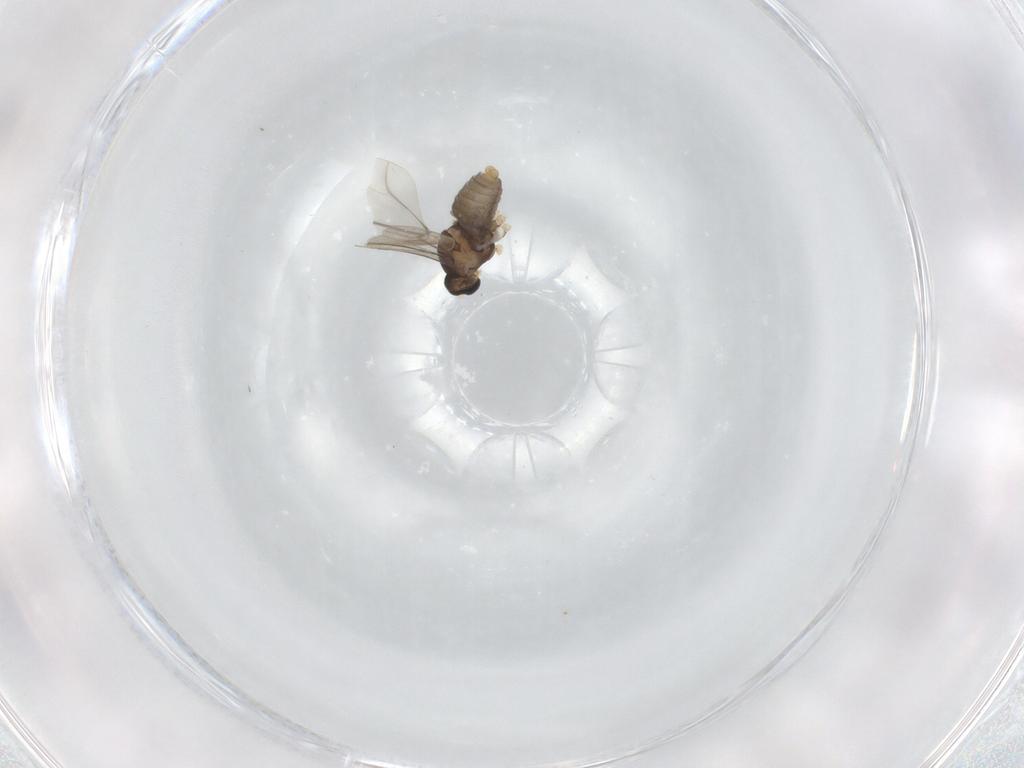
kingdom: Animalia
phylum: Arthropoda
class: Insecta
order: Diptera
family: Cecidomyiidae
